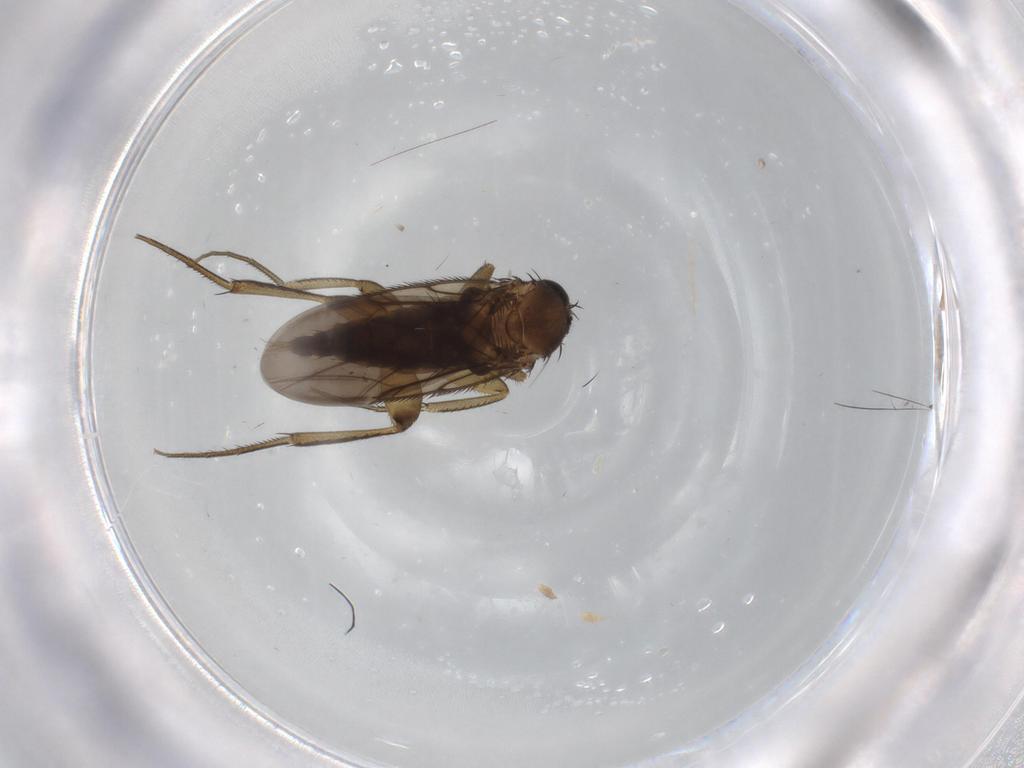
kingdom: Animalia
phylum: Arthropoda
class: Insecta
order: Diptera
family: Phoridae
